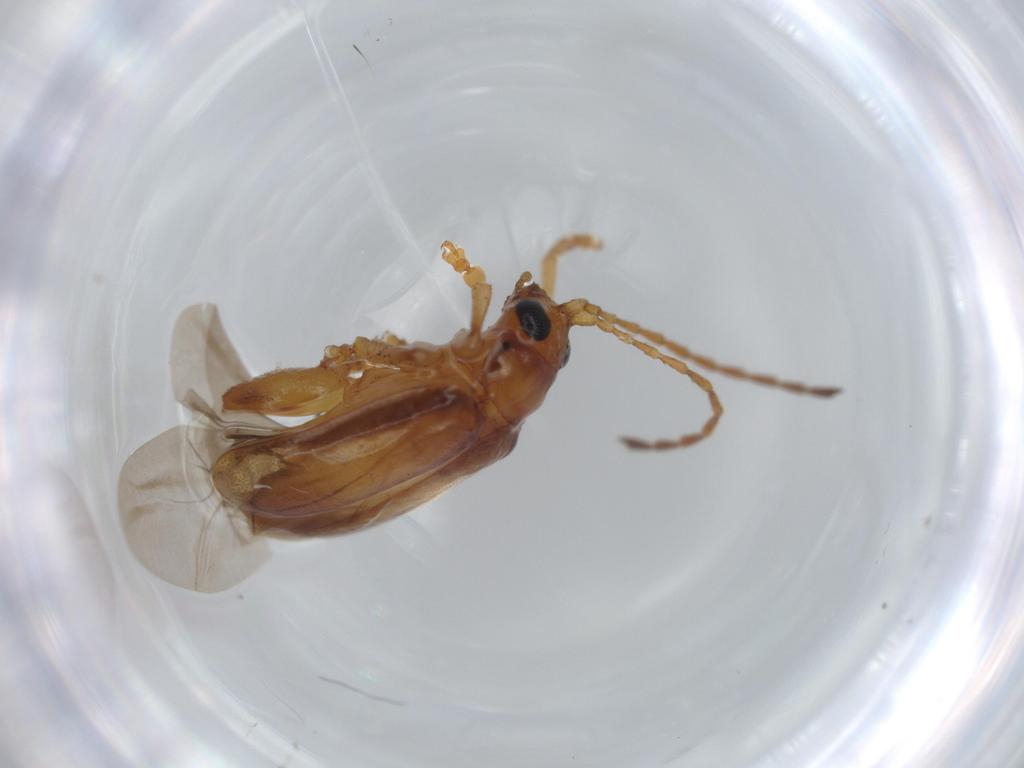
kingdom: Animalia
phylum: Arthropoda
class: Insecta
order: Coleoptera
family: Chrysomelidae
